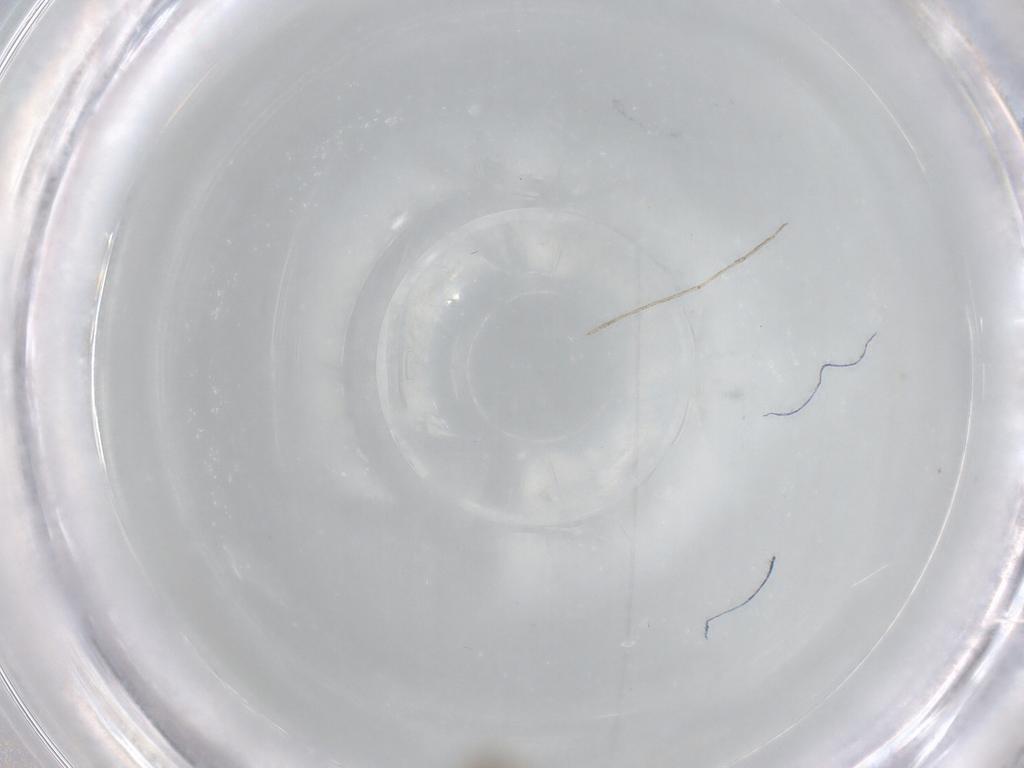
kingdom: Animalia
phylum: Arthropoda
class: Insecta
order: Diptera
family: Chironomidae
